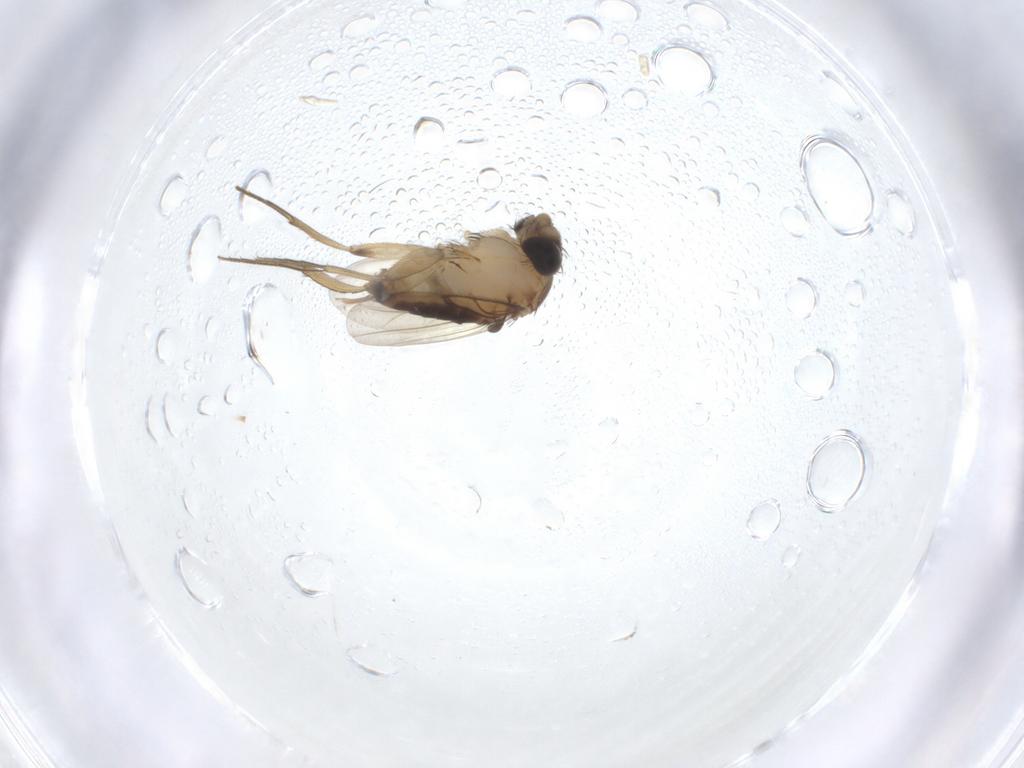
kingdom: Animalia
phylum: Arthropoda
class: Insecta
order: Diptera
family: Phoridae
